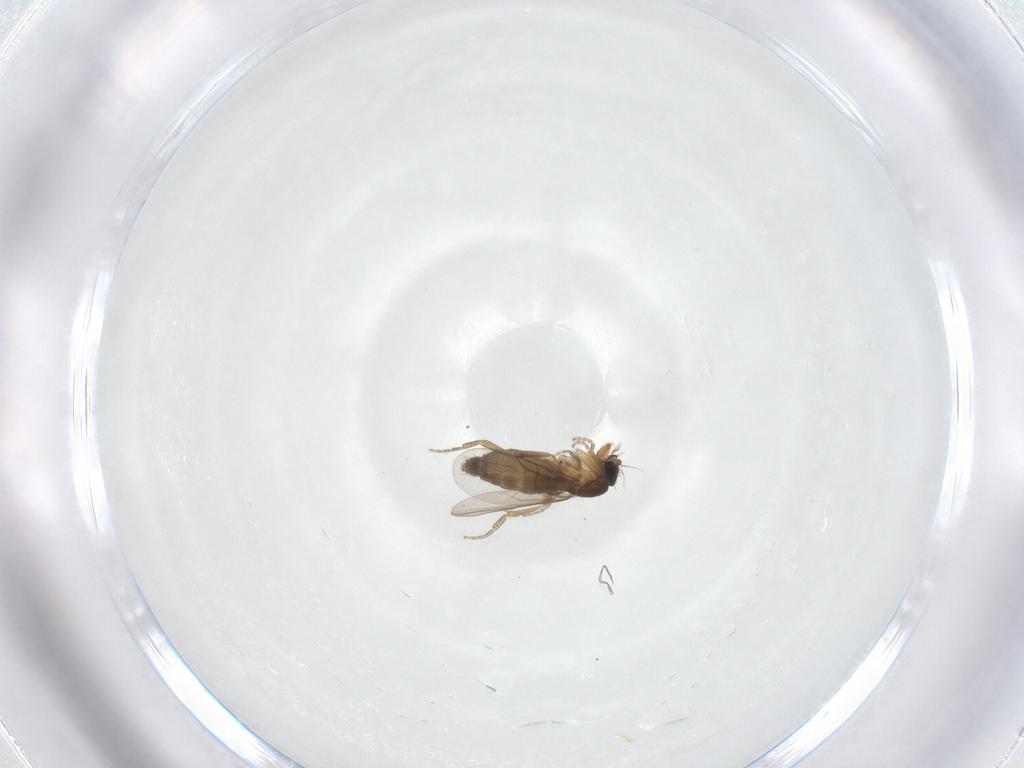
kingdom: Animalia
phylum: Arthropoda
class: Insecta
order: Diptera
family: Phoridae
